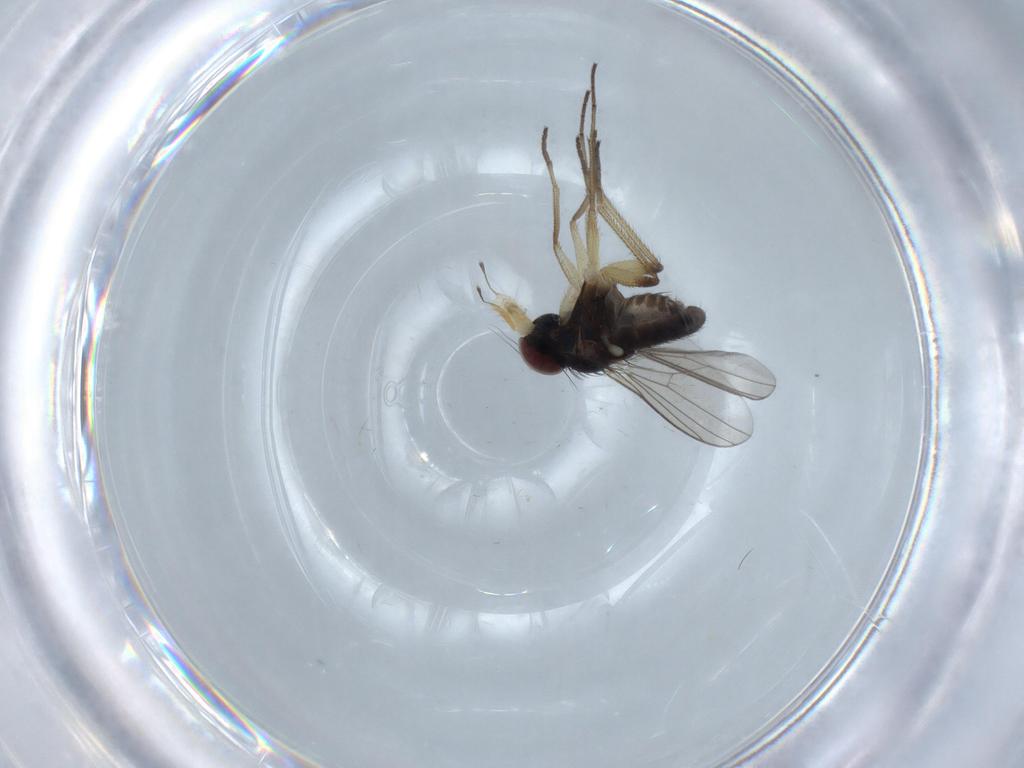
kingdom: Animalia
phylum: Arthropoda
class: Insecta
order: Diptera
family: Dolichopodidae
